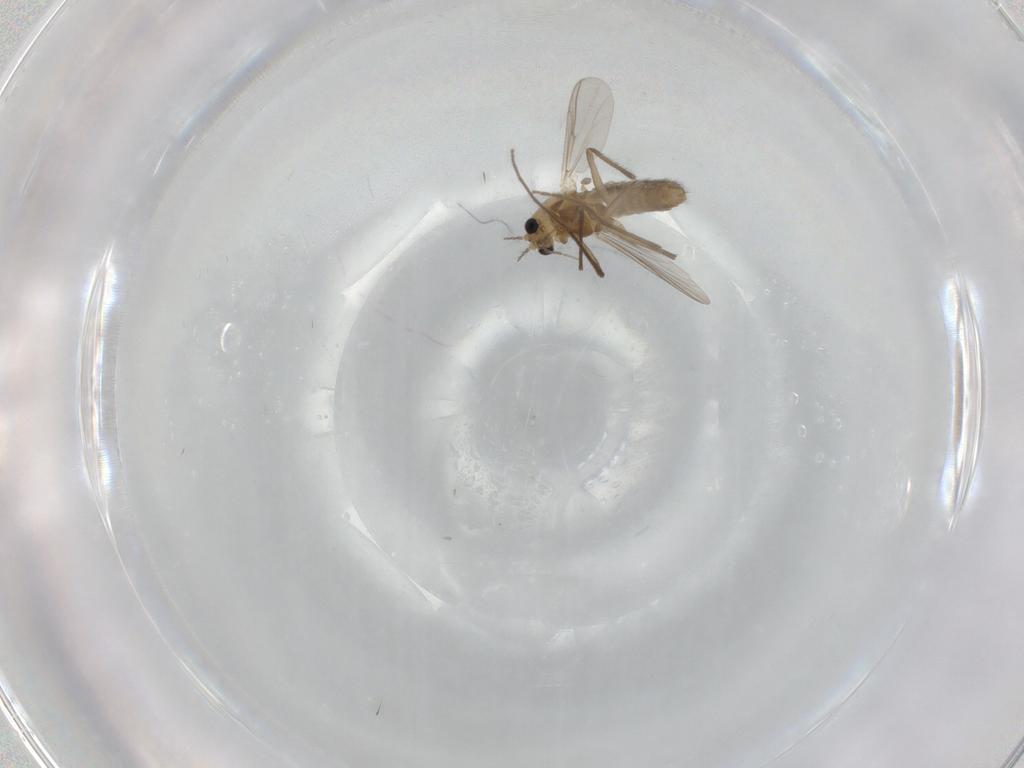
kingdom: Animalia
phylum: Arthropoda
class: Insecta
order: Diptera
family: Chironomidae
